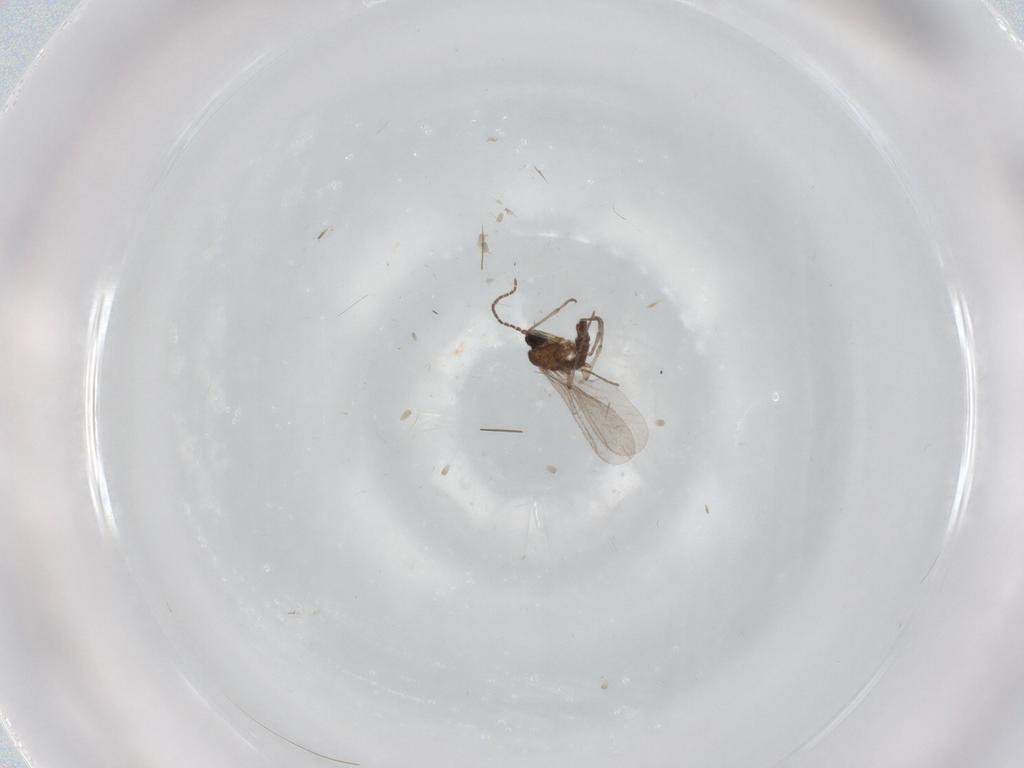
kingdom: Animalia
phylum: Arthropoda
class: Insecta
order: Diptera
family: Sciaridae
